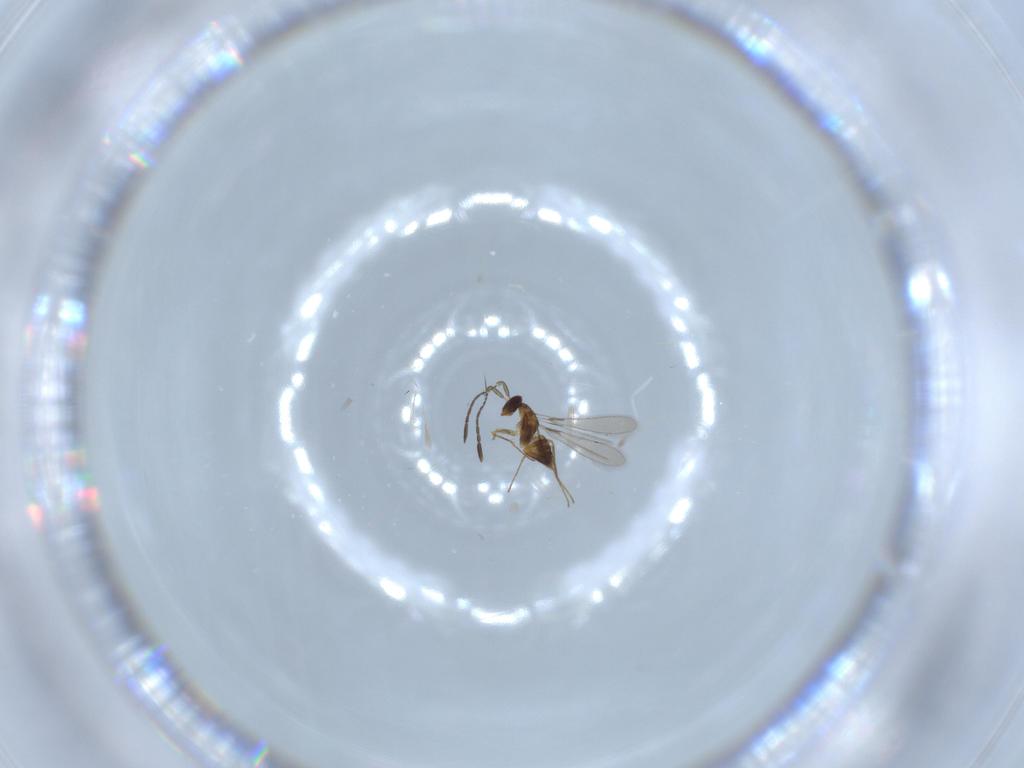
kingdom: Animalia
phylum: Arthropoda
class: Insecta
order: Hymenoptera
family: Mymaridae
